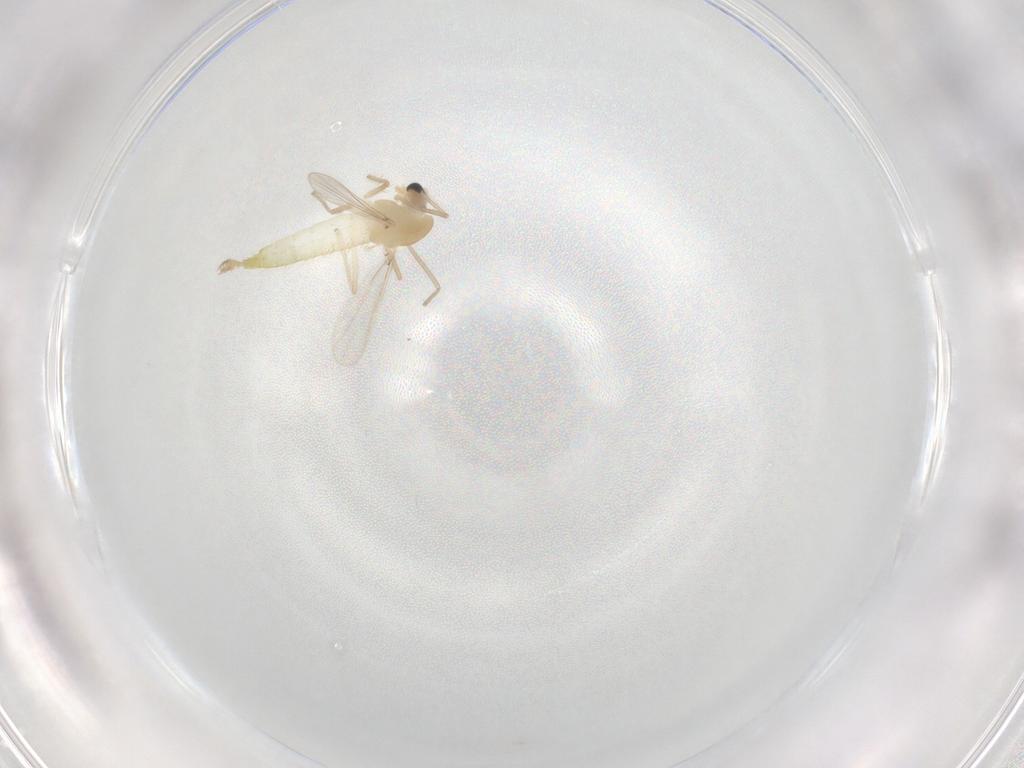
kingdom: Animalia
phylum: Arthropoda
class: Insecta
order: Diptera
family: Chironomidae
